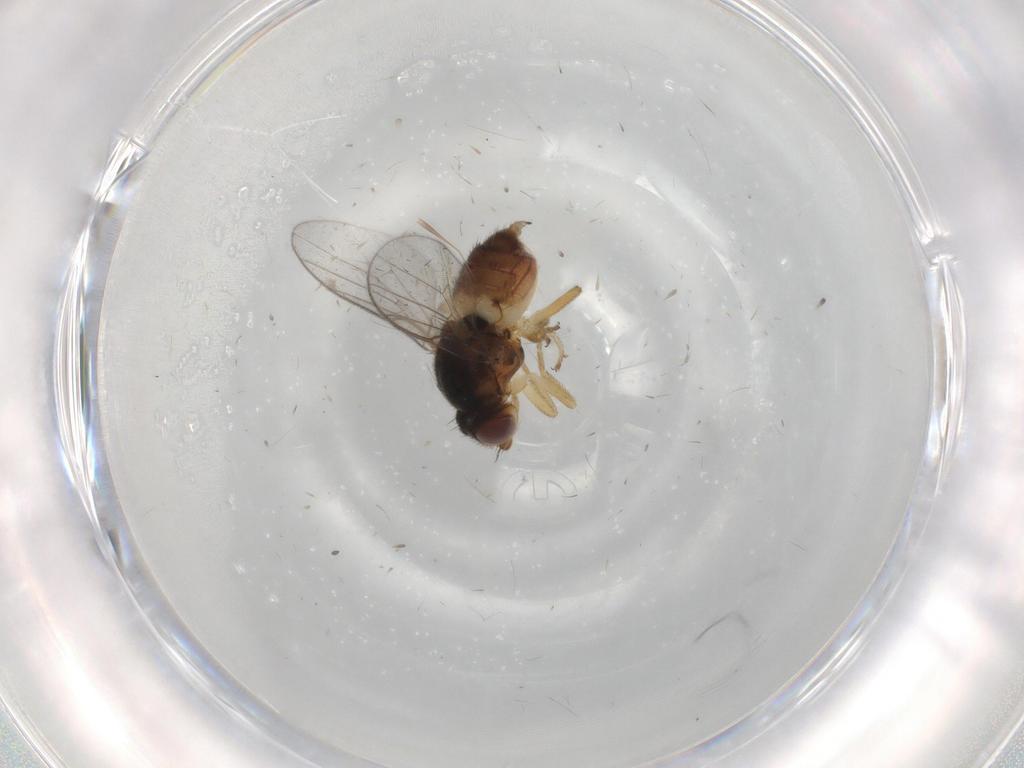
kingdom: Animalia
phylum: Arthropoda
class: Insecta
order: Diptera
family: Chloropidae
